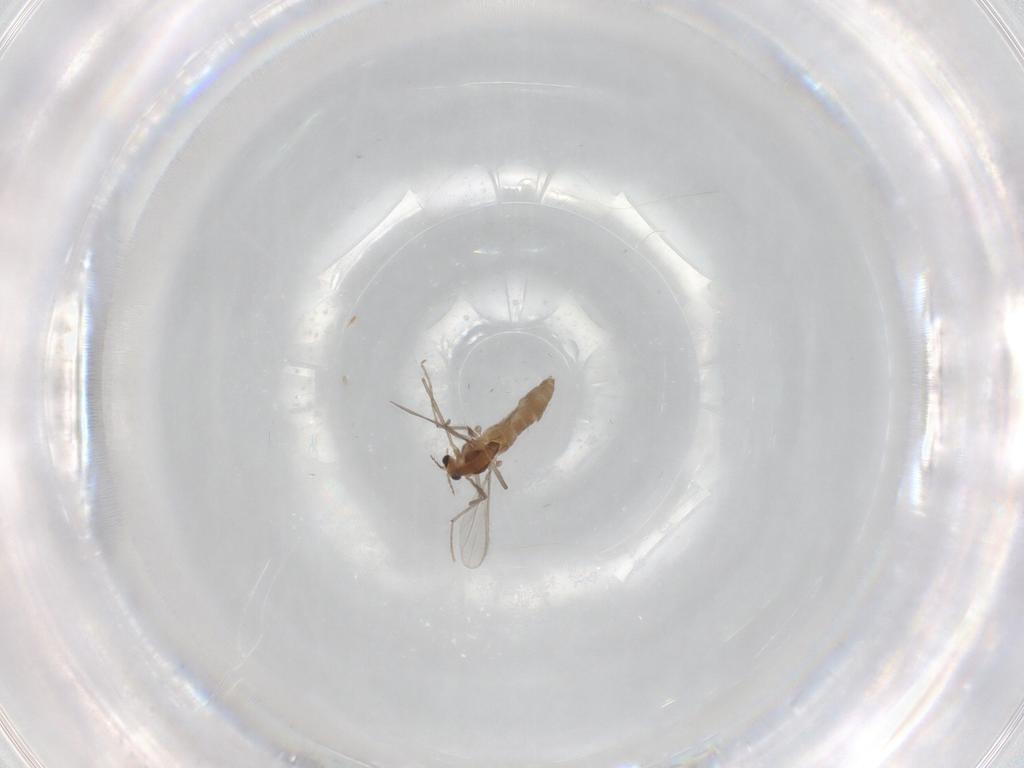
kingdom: Animalia
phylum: Arthropoda
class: Insecta
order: Diptera
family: Chironomidae
